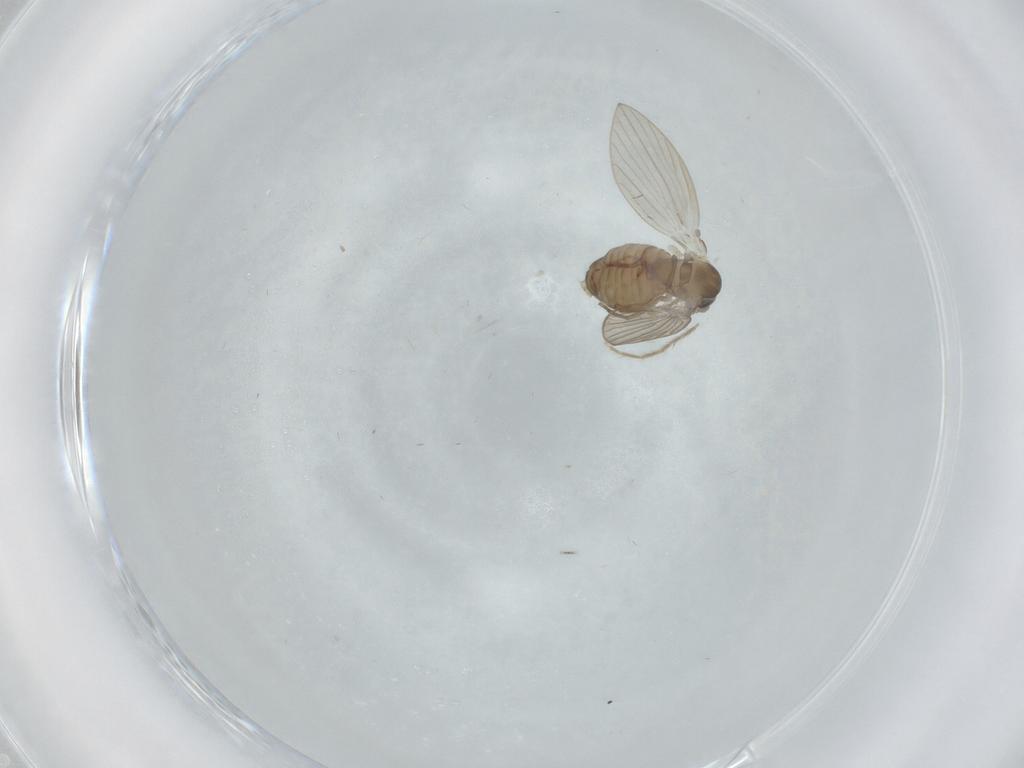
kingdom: Animalia
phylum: Arthropoda
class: Insecta
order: Diptera
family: Psychodidae
